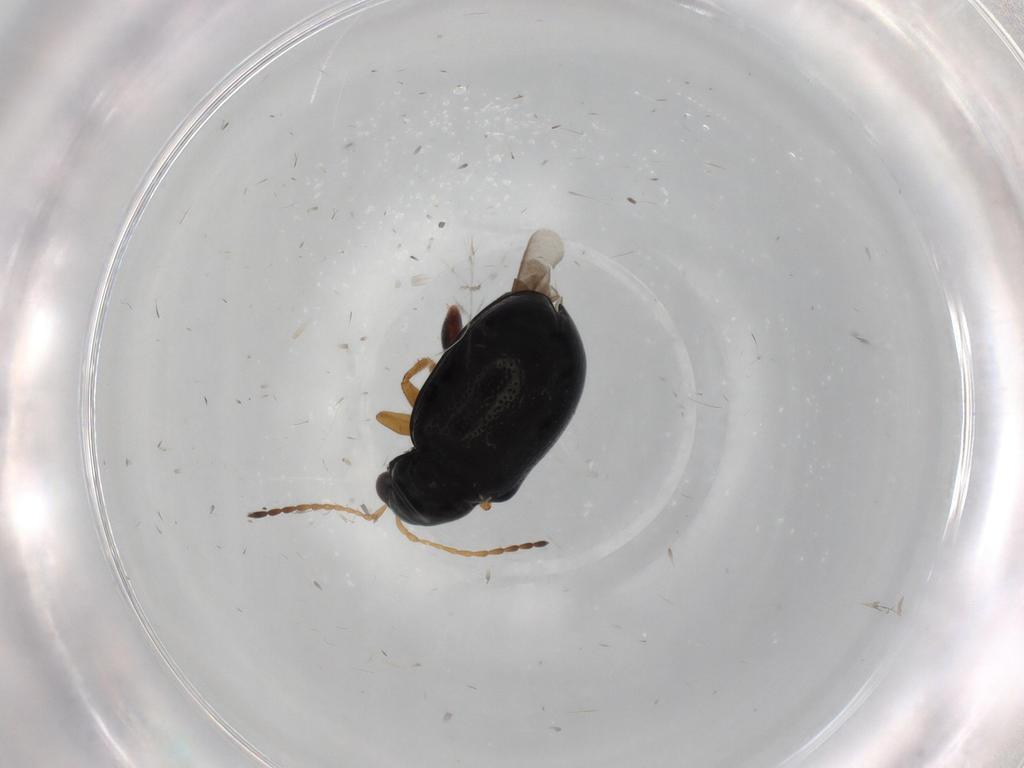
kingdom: Animalia
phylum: Arthropoda
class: Insecta
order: Coleoptera
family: Chrysomelidae
